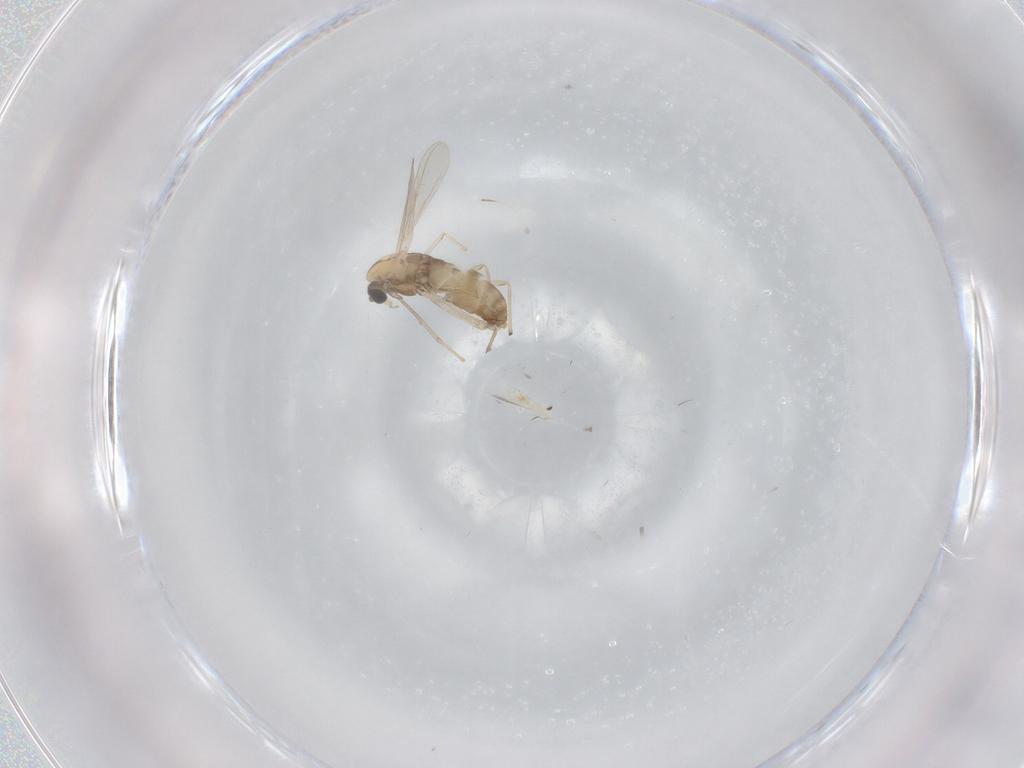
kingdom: Animalia
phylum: Arthropoda
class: Insecta
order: Diptera
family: Chironomidae
